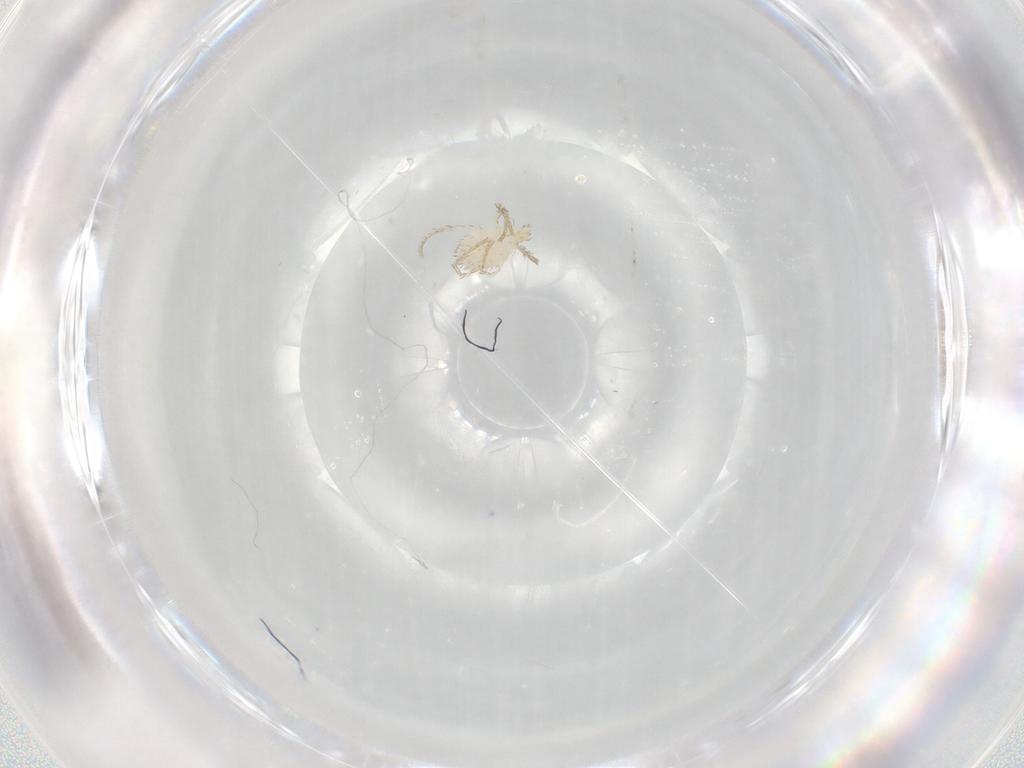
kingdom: Animalia
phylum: Arthropoda
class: Arachnida
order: Trombidiformes
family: Erythraeidae
